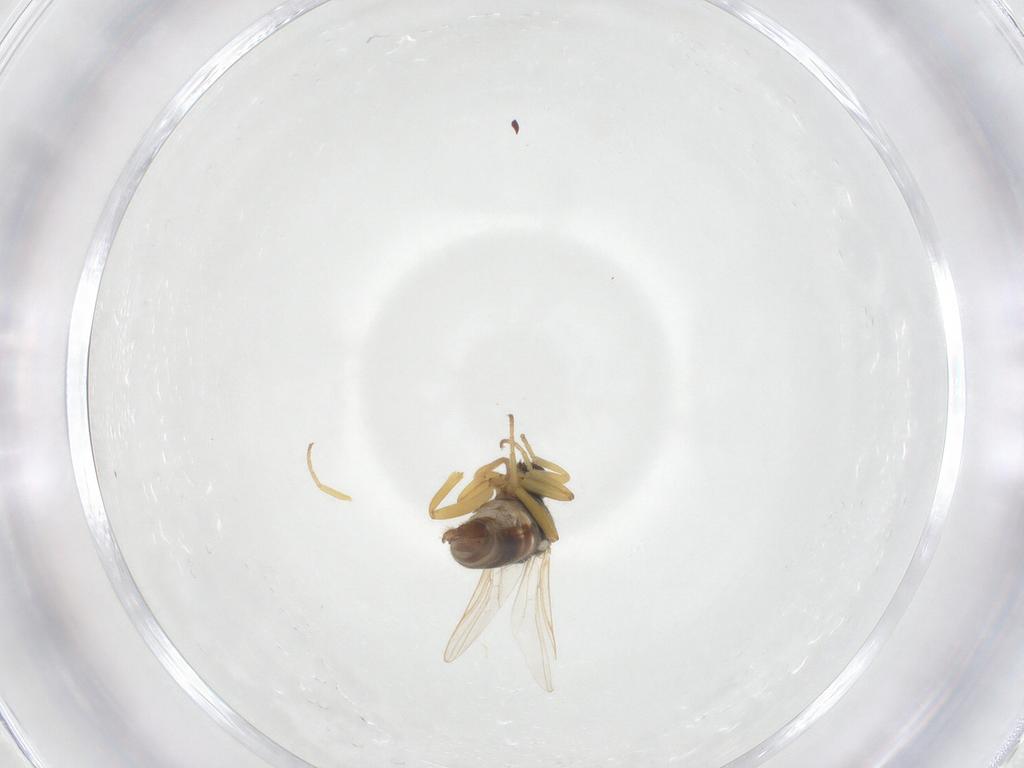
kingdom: Animalia
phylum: Arthropoda
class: Insecta
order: Diptera
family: Hybotidae
